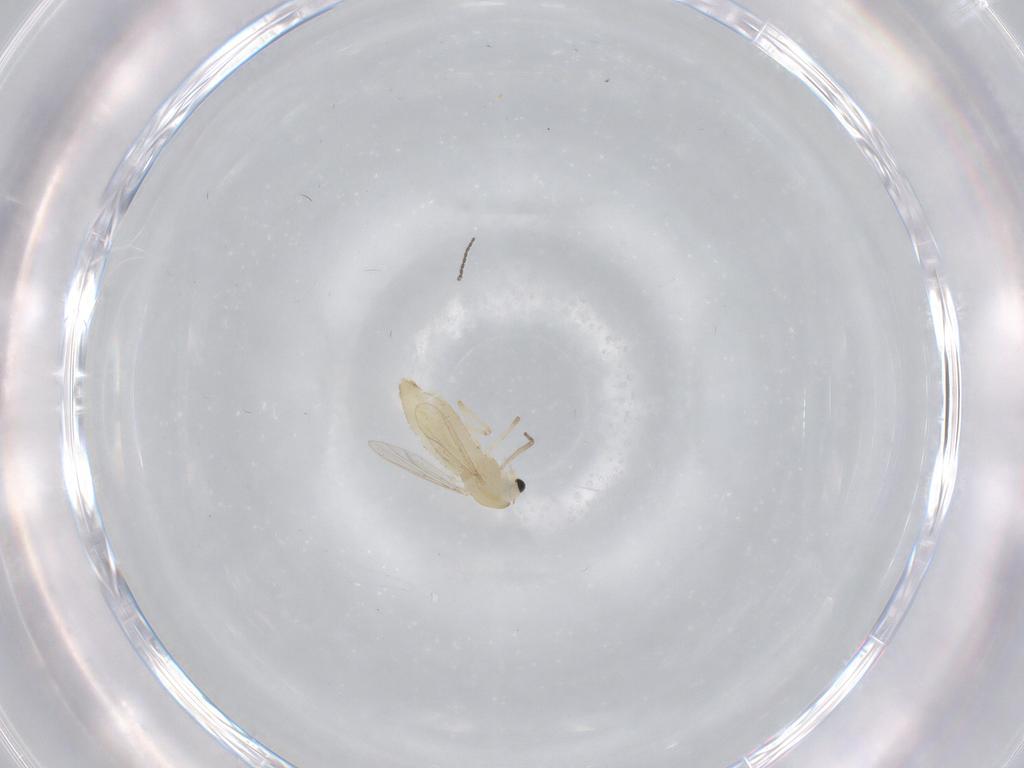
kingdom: Animalia
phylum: Arthropoda
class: Insecta
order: Diptera
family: Chironomidae
